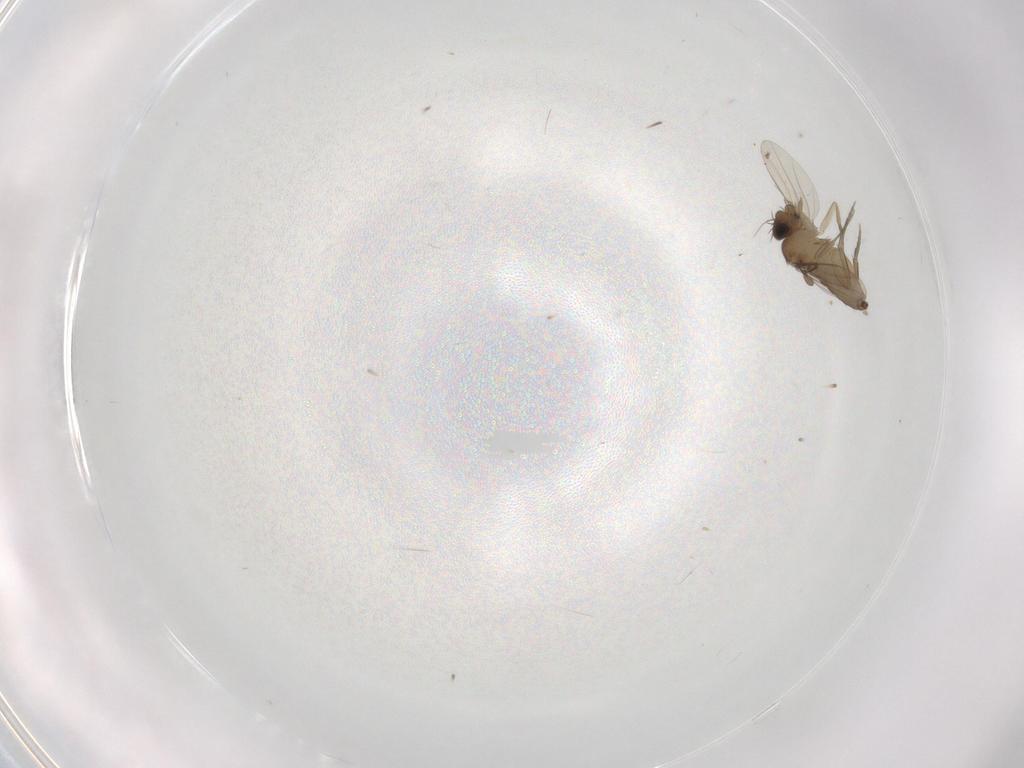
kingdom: Animalia
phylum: Arthropoda
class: Insecta
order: Diptera
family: Phoridae
